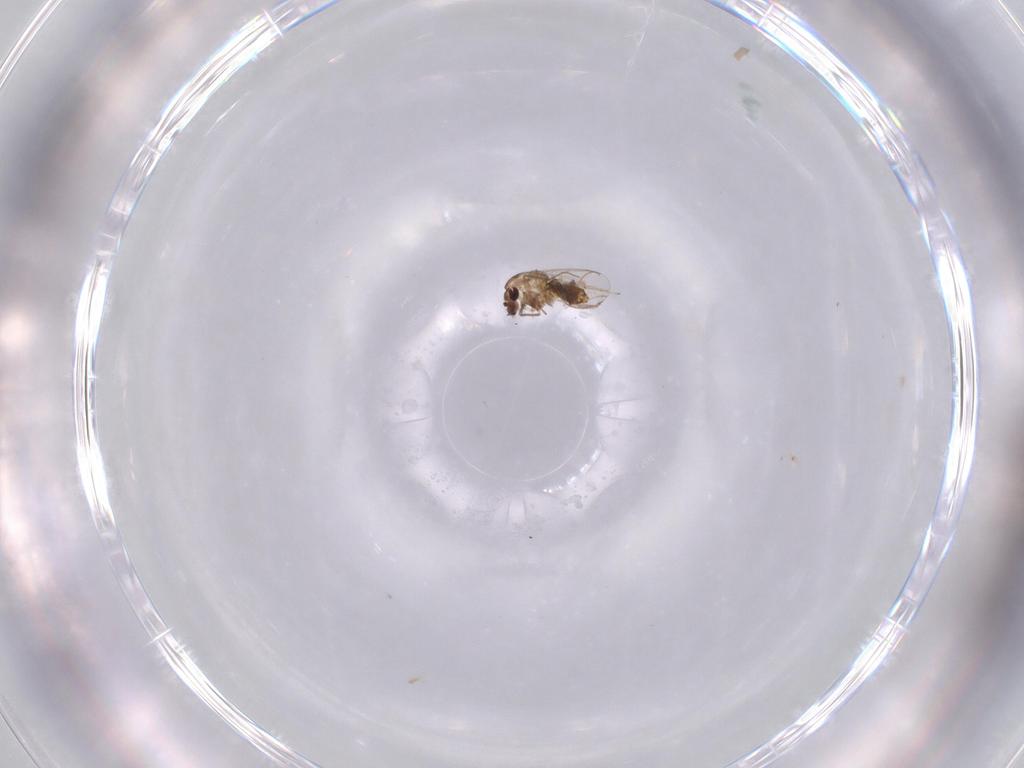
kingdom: Animalia
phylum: Arthropoda
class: Insecta
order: Diptera
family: Chironomidae
